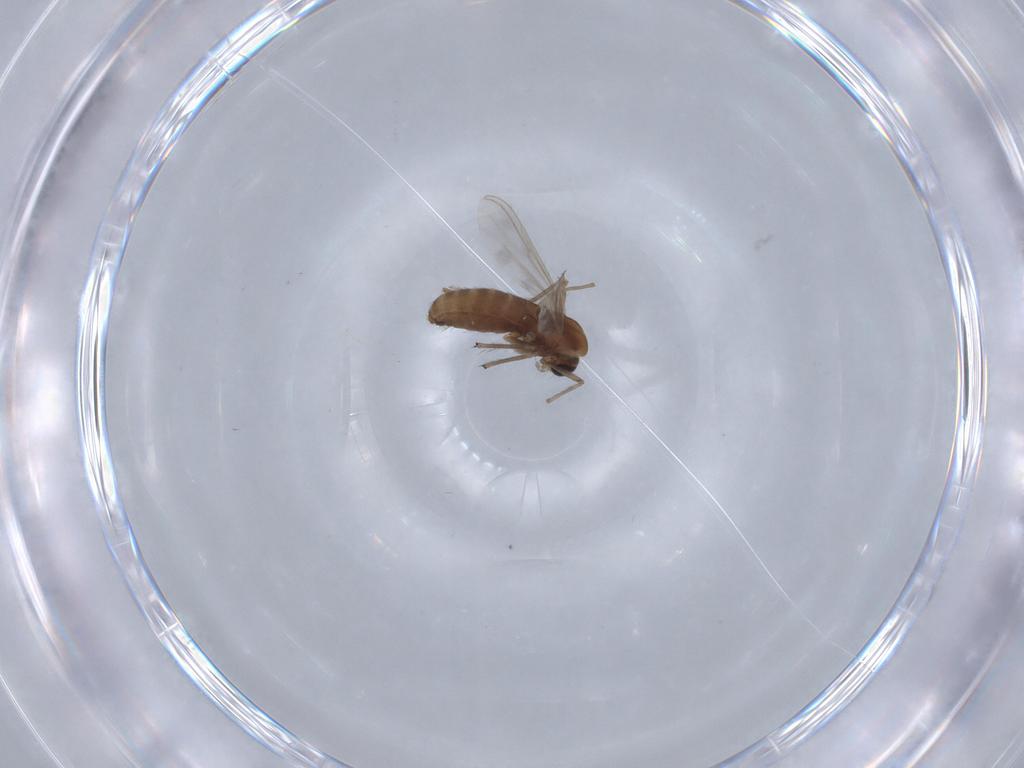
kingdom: Animalia
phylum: Arthropoda
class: Insecta
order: Diptera
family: Chironomidae
